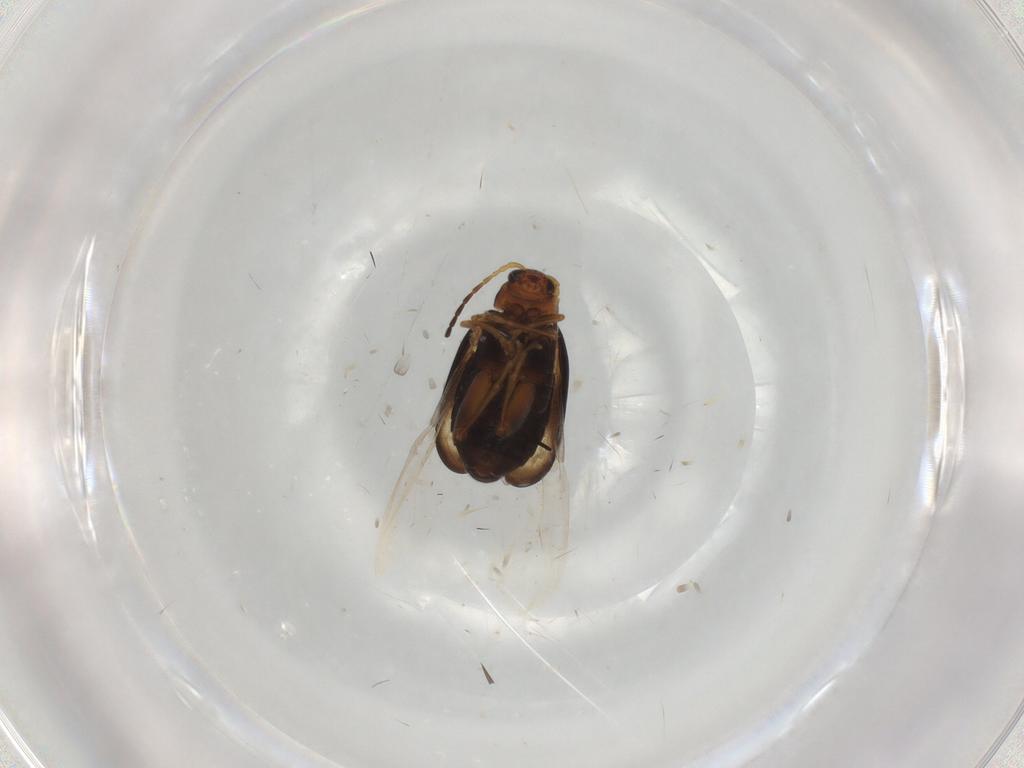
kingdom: Animalia
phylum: Arthropoda
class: Insecta
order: Coleoptera
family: Chrysomelidae
